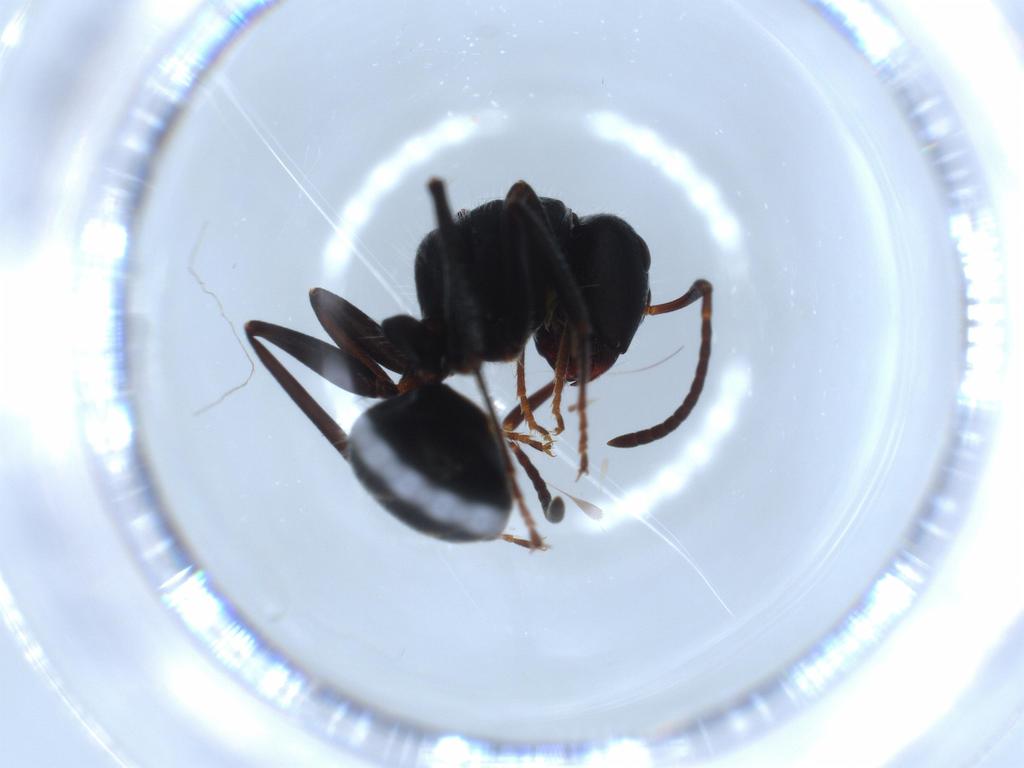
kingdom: Animalia
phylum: Arthropoda
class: Insecta
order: Hymenoptera
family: Formicidae
